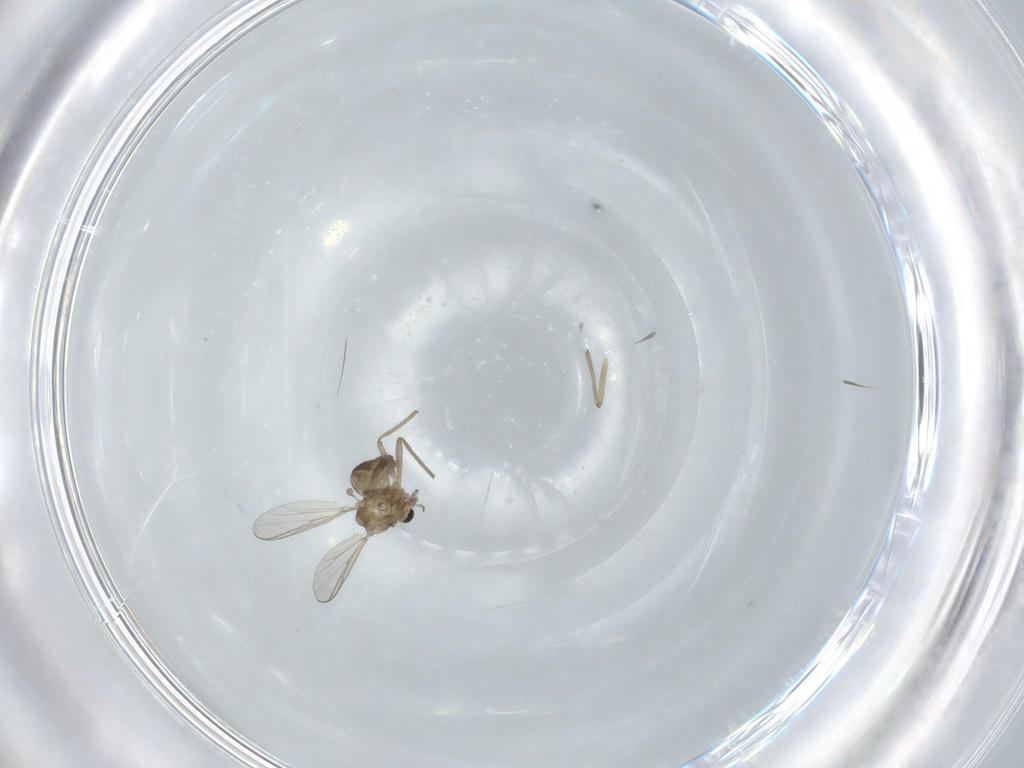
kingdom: Animalia
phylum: Arthropoda
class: Insecta
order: Diptera
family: Chironomidae
